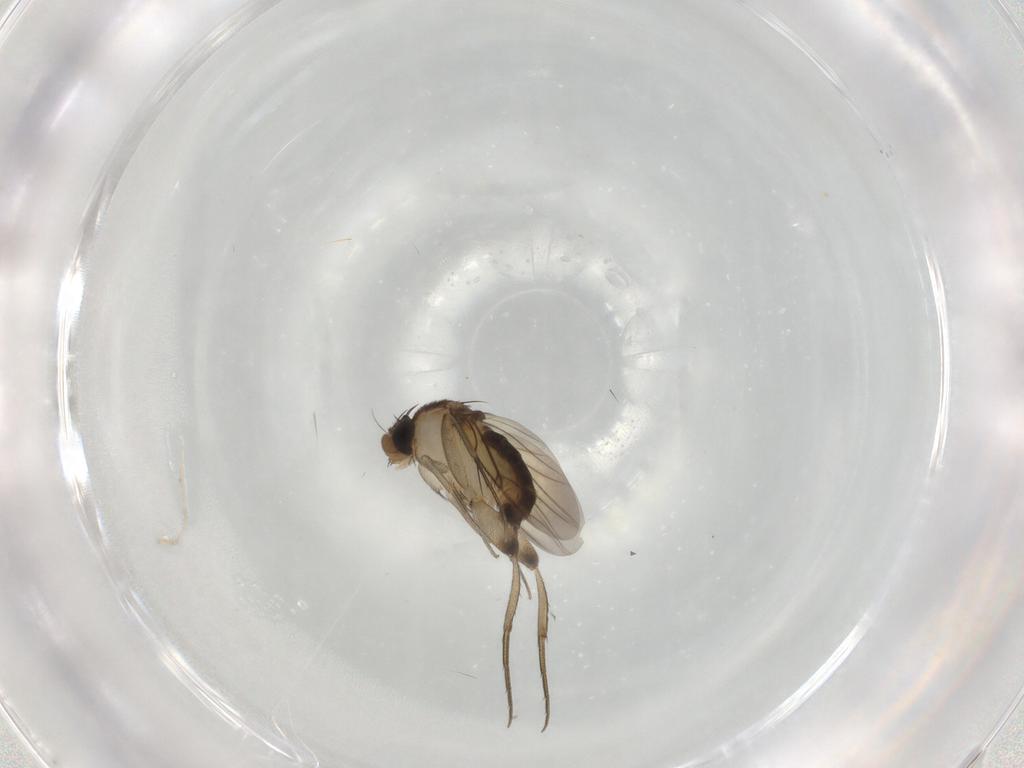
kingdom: Animalia
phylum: Arthropoda
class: Insecta
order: Diptera
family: Phoridae
